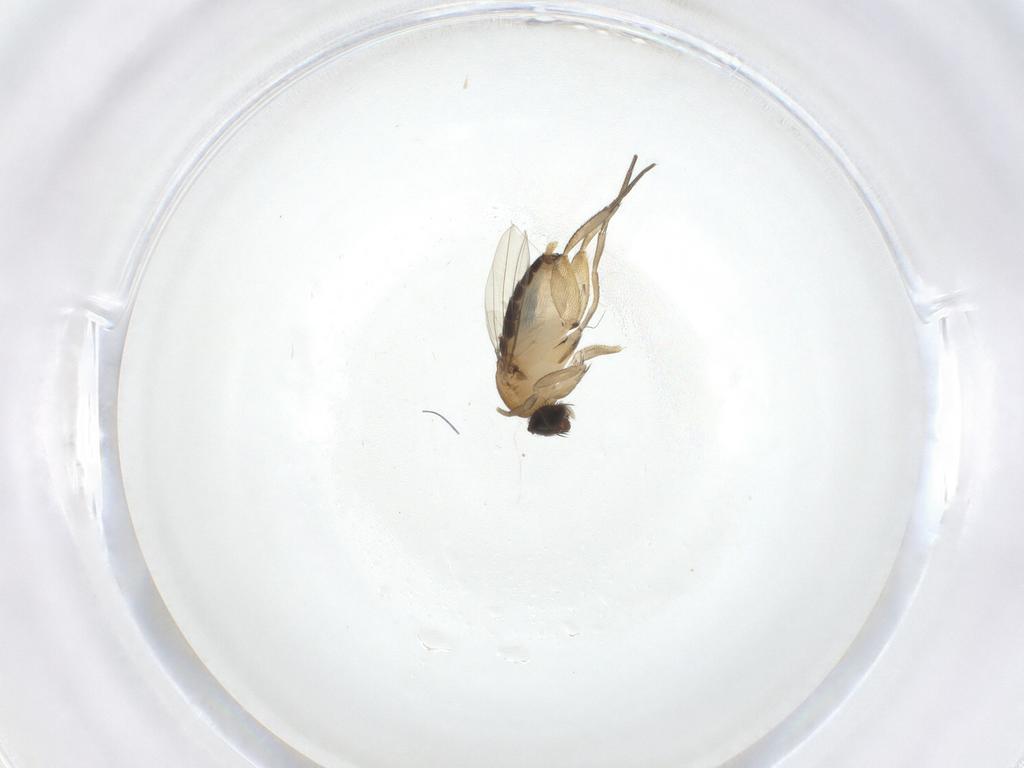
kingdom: Animalia
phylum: Arthropoda
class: Insecta
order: Diptera
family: Phoridae
